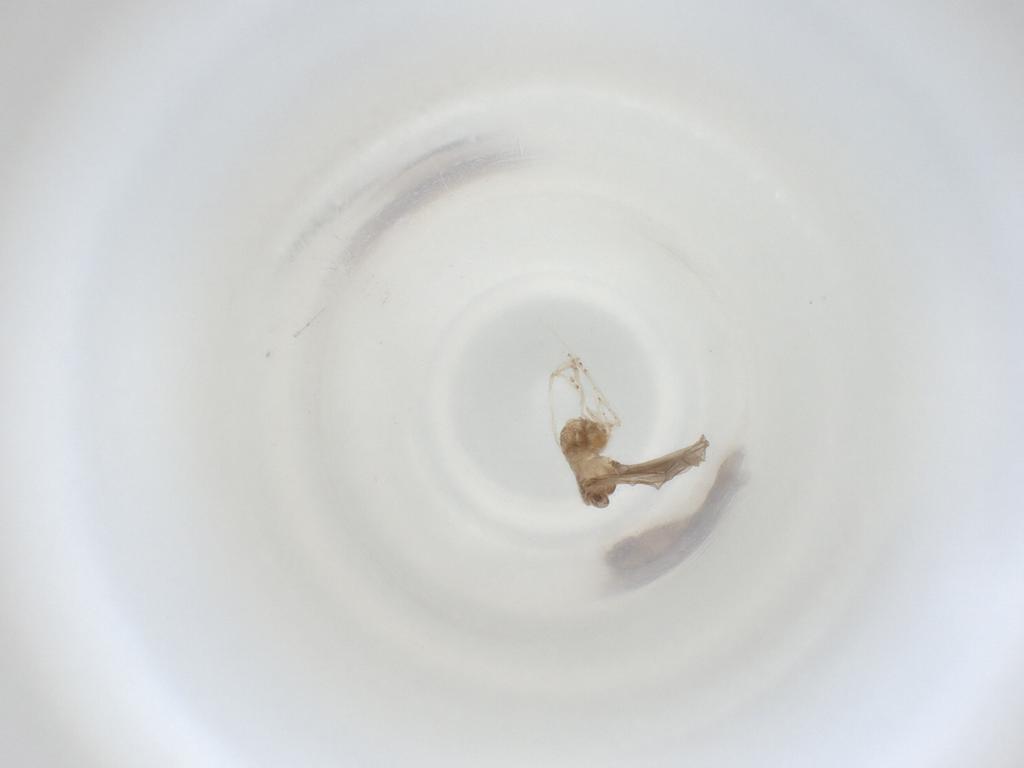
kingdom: Animalia
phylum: Arthropoda
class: Insecta
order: Diptera
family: Cecidomyiidae
